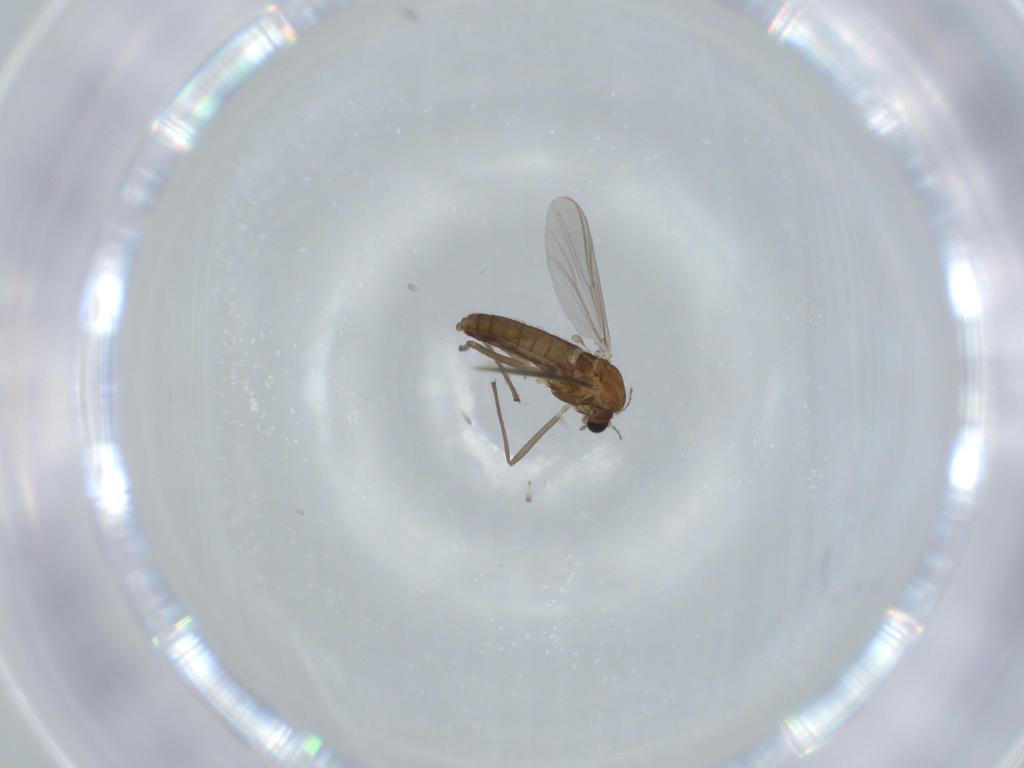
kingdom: Animalia
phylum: Arthropoda
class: Insecta
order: Diptera
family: Chironomidae
